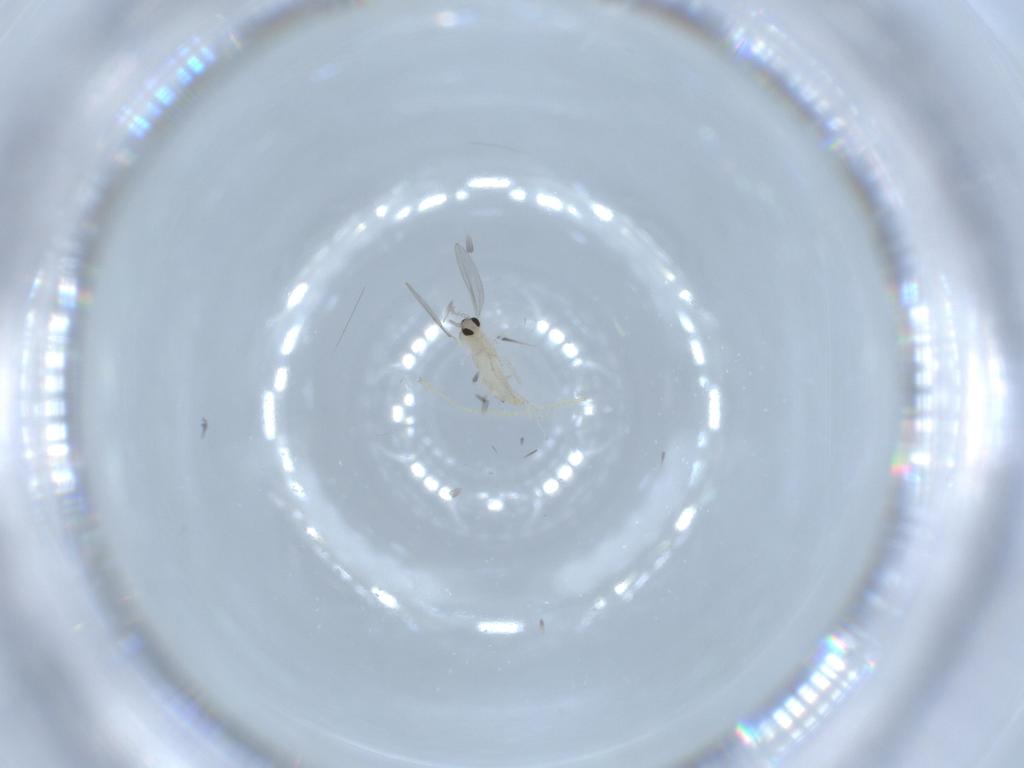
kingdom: Animalia
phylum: Arthropoda
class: Insecta
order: Diptera
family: Cecidomyiidae
